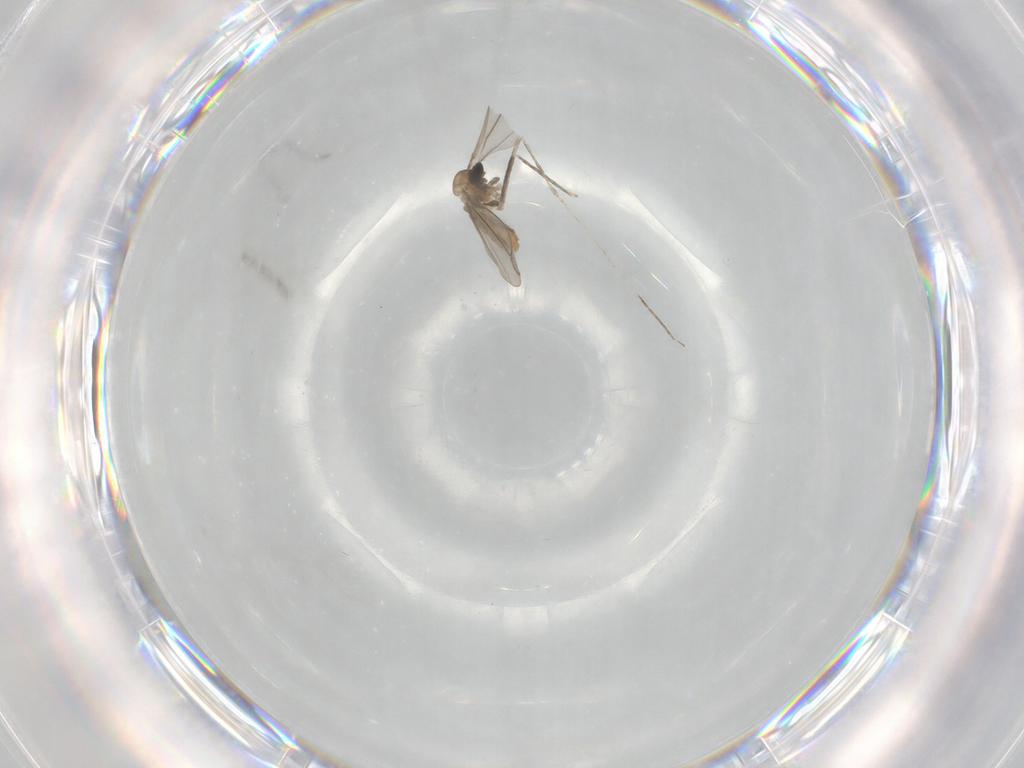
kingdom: Animalia
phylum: Arthropoda
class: Insecta
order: Diptera
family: Cecidomyiidae
